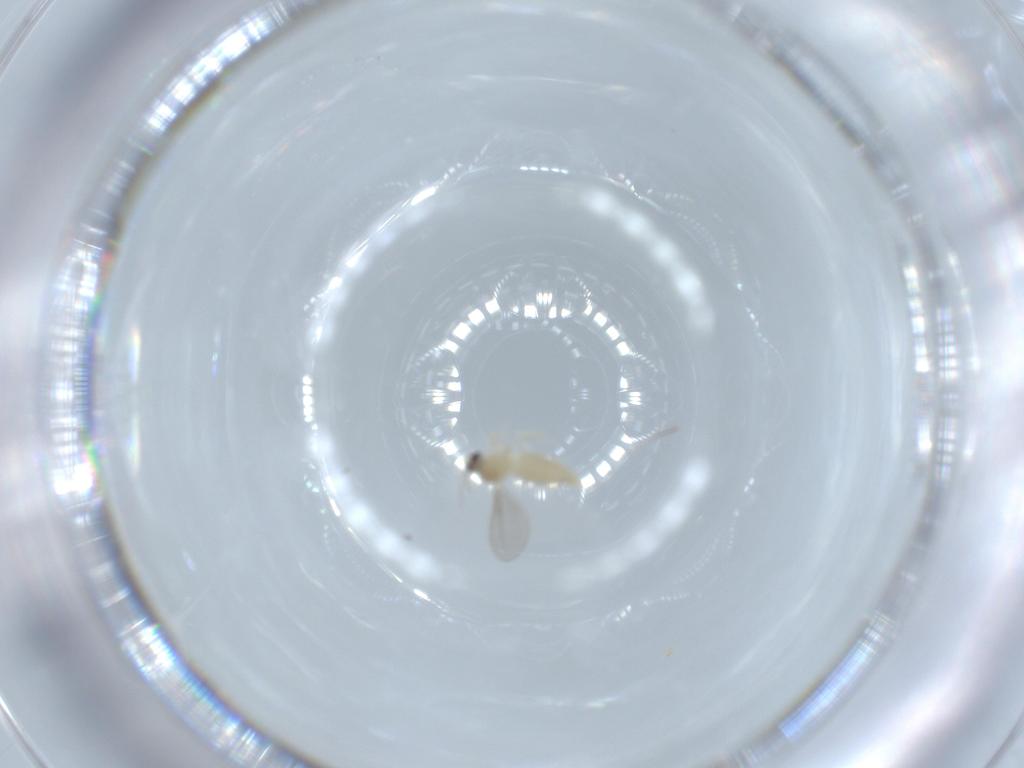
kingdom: Animalia
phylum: Arthropoda
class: Insecta
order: Diptera
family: Cecidomyiidae
